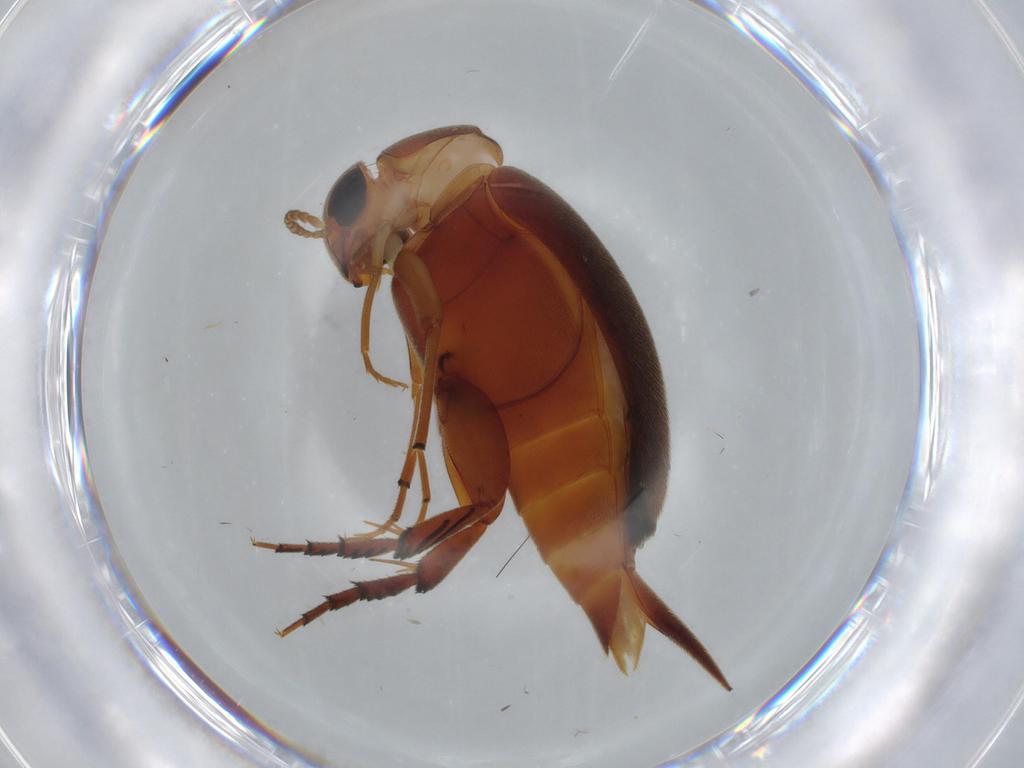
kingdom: Animalia
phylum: Arthropoda
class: Insecta
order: Coleoptera
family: Mordellidae
